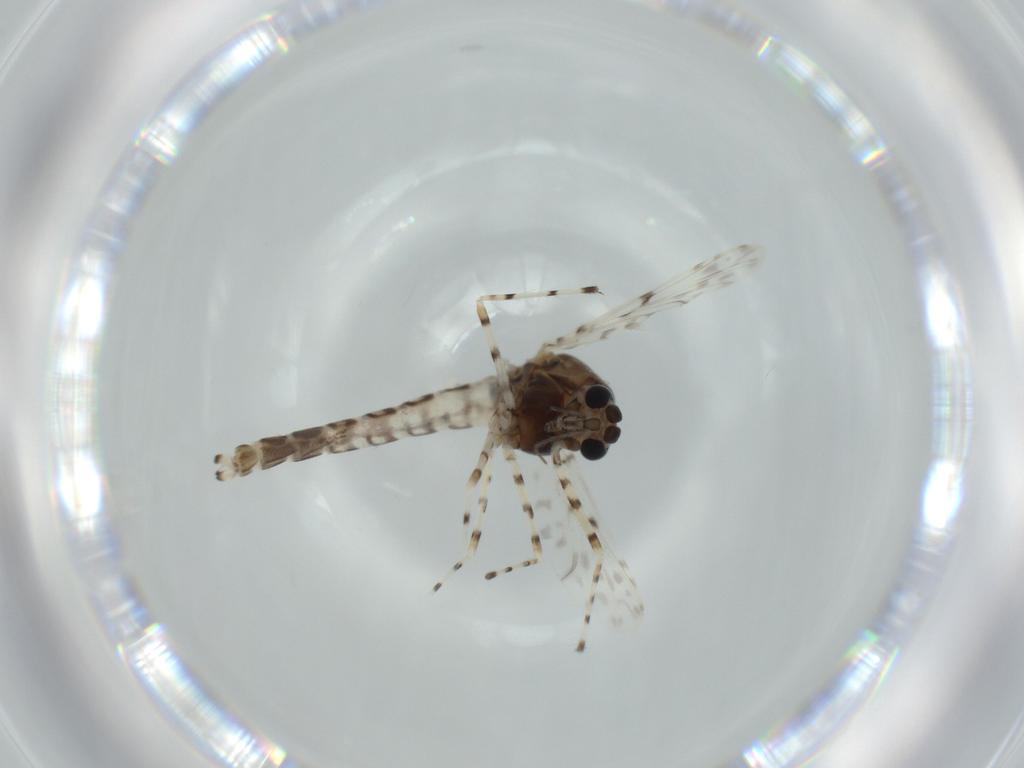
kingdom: Animalia
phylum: Arthropoda
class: Insecta
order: Diptera
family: Chironomidae
